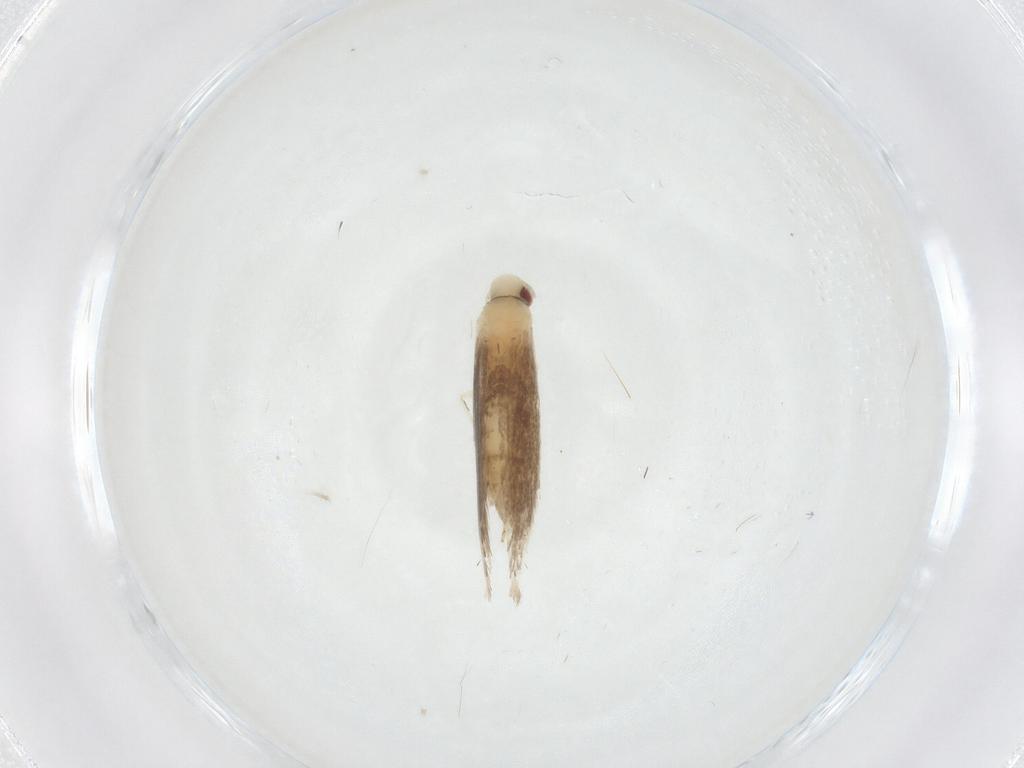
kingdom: Animalia
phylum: Arthropoda
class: Insecta
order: Lepidoptera
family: Gracillariidae
